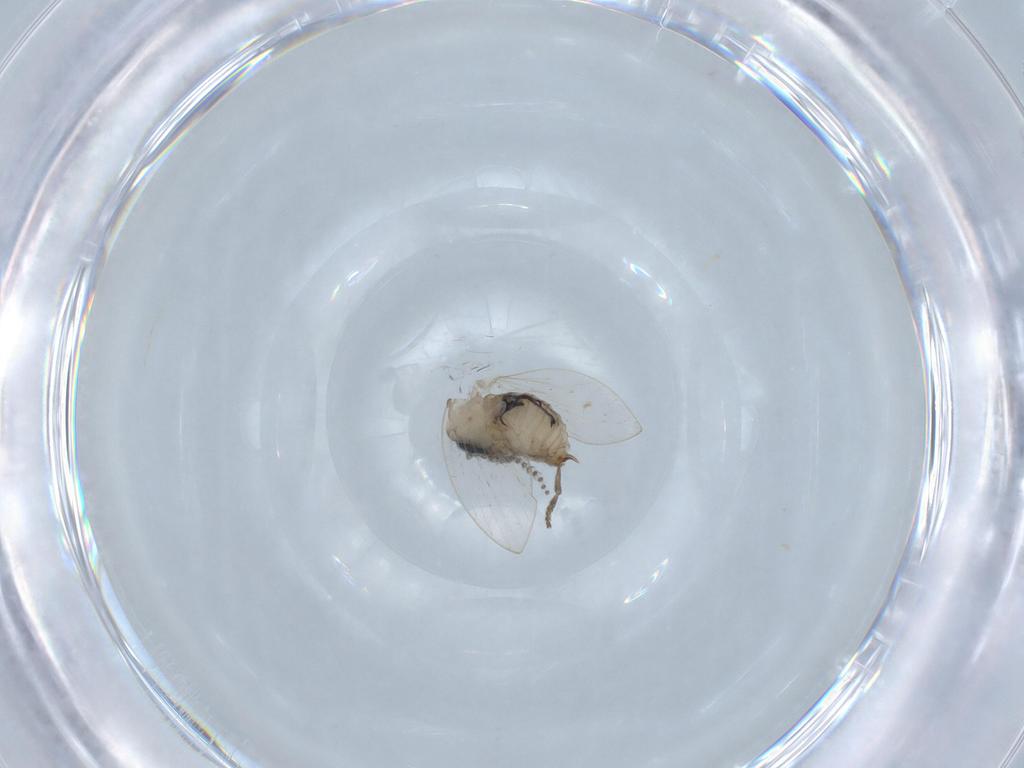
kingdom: Animalia
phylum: Arthropoda
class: Insecta
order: Diptera
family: Psychodidae
